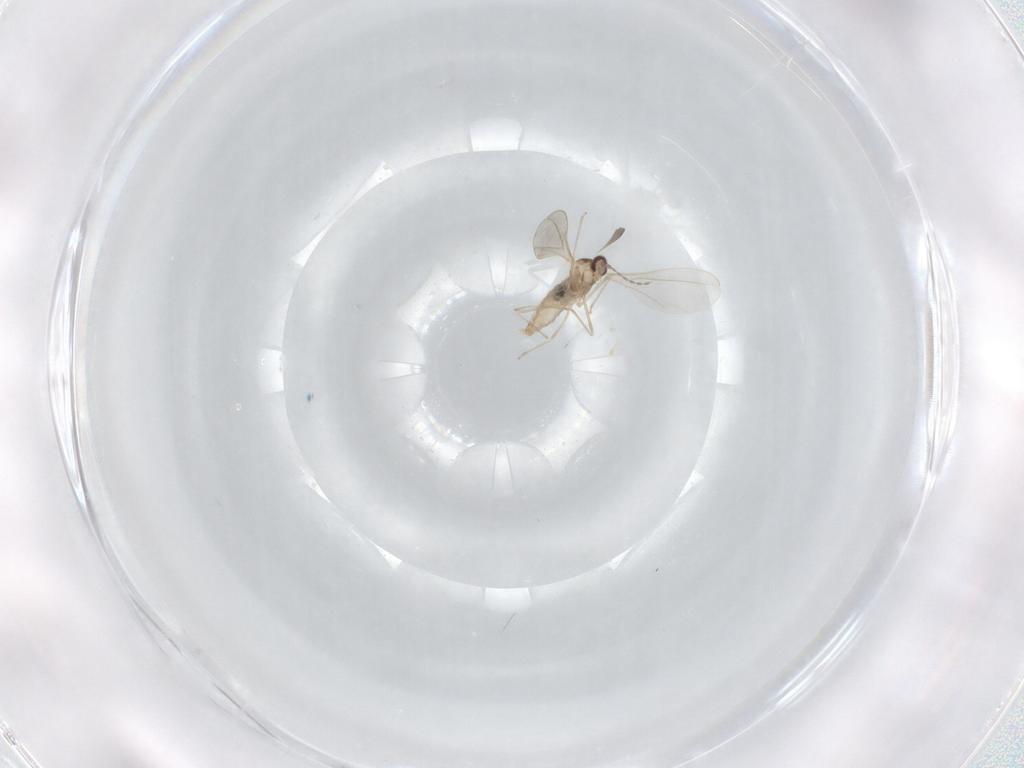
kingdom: Animalia
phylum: Arthropoda
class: Insecta
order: Diptera
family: Cecidomyiidae
